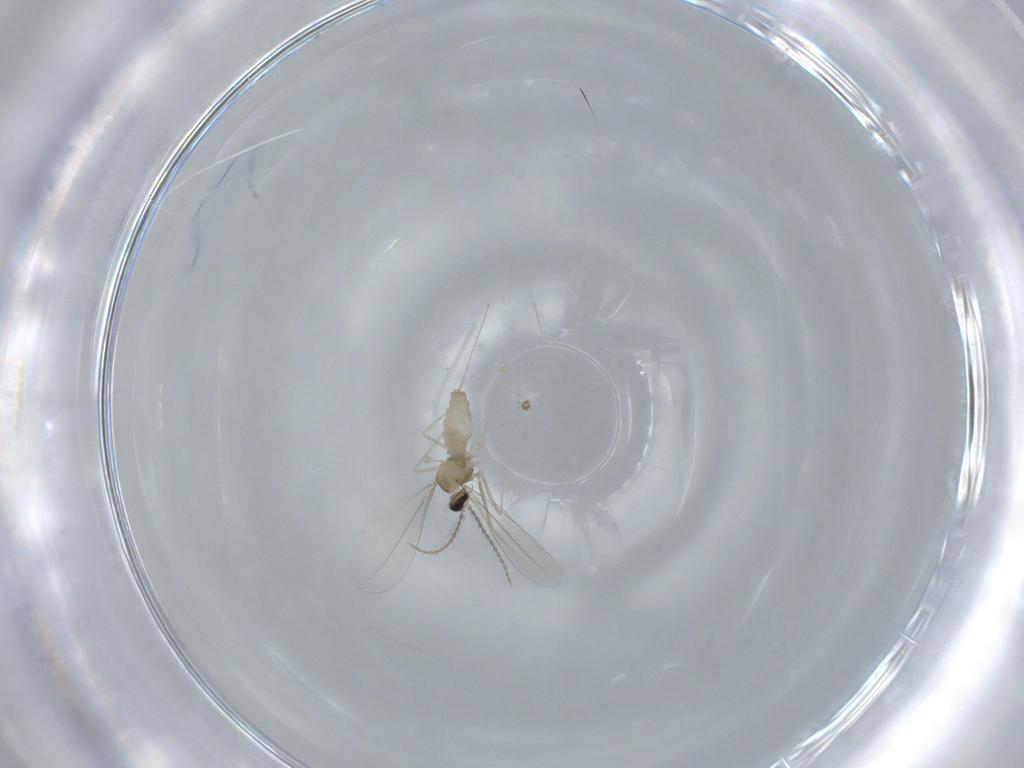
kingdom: Animalia
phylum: Arthropoda
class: Insecta
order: Diptera
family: Cecidomyiidae
